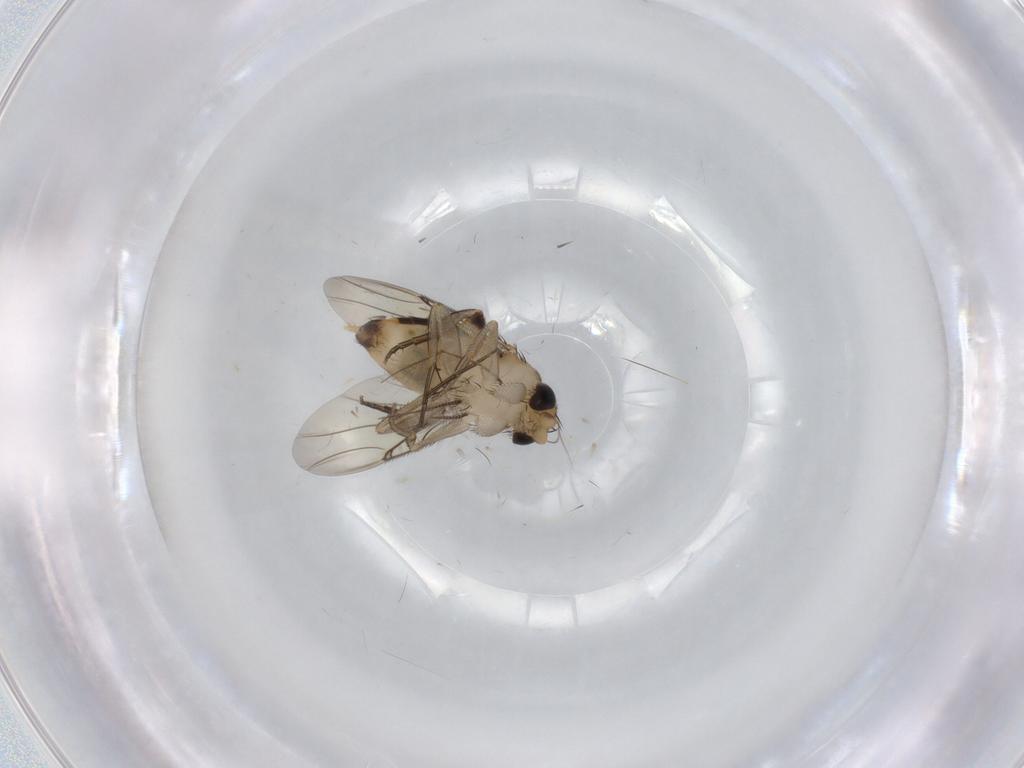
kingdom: Animalia
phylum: Arthropoda
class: Insecta
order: Diptera
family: Phoridae
